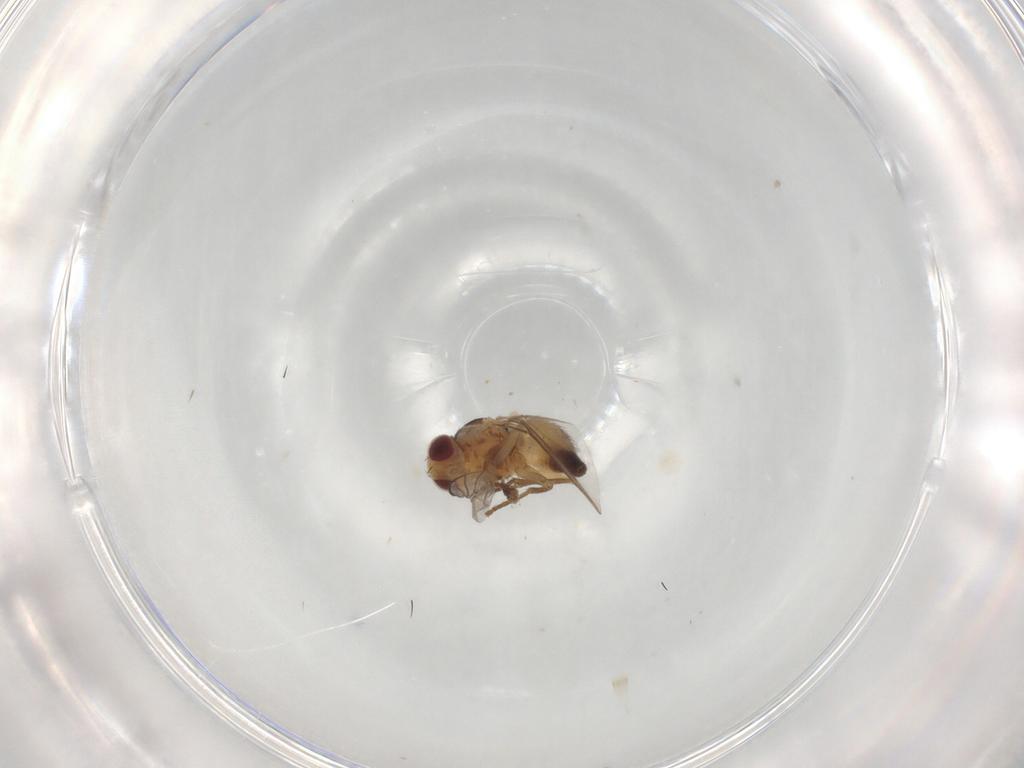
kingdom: Animalia
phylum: Arthropoda
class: Insecta
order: Diptera
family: Agromyzidae
